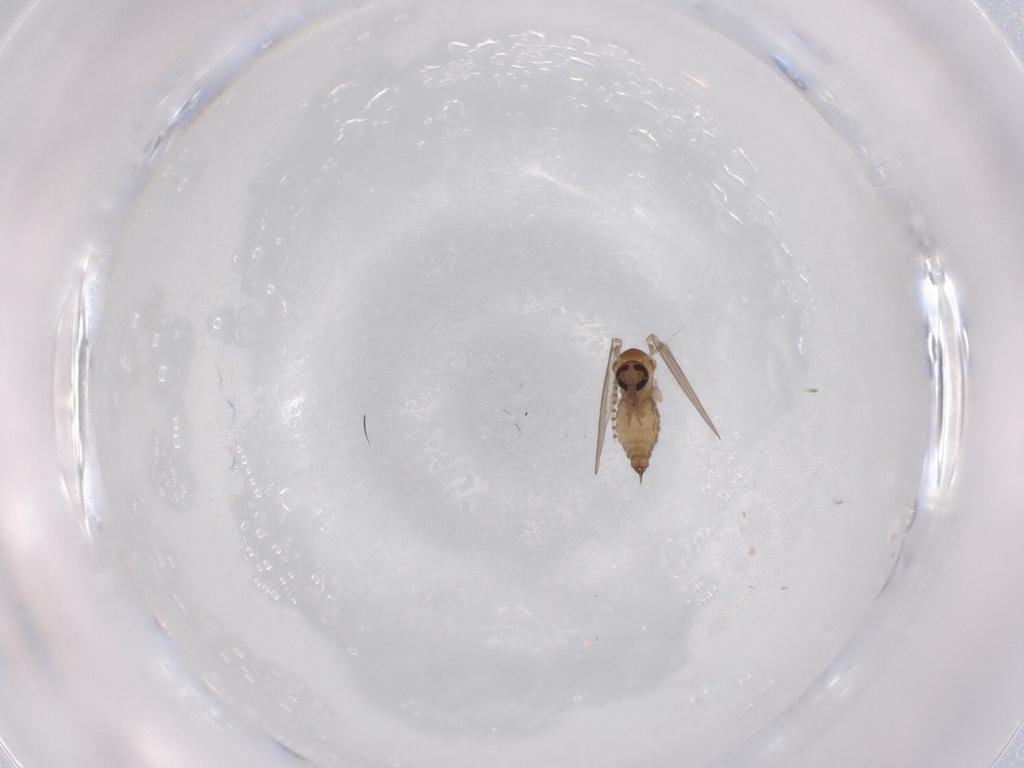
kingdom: Animalia
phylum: Arthropoda
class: Insecta
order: Diptera
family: Psychodidae
